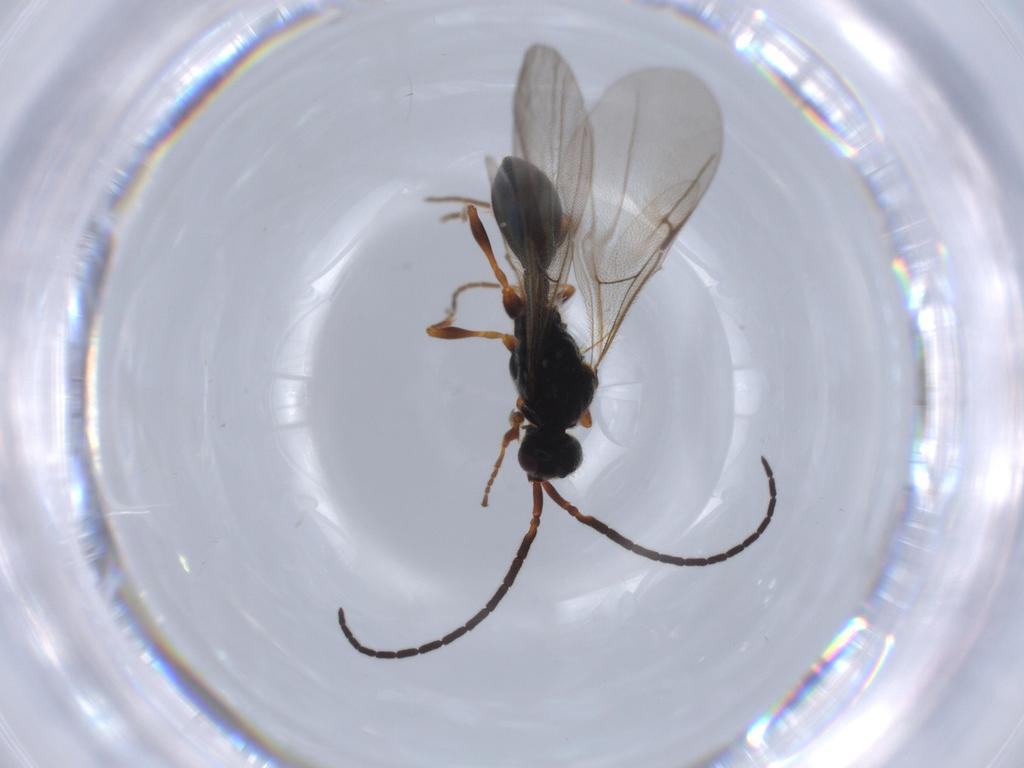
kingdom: Animalia
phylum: Arthropoda
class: Insecta
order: Hymenoptera
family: Diapriidae
